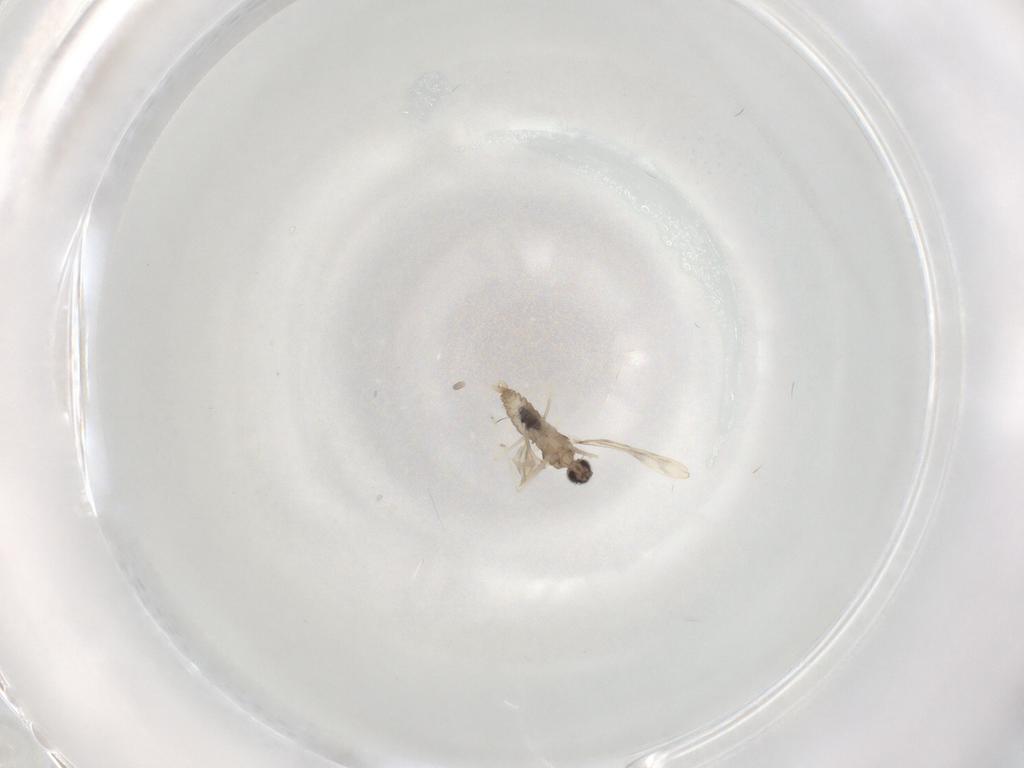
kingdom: Animalia
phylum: Arthropoda
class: Insecta
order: Diptera
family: Cecidomyiidae
